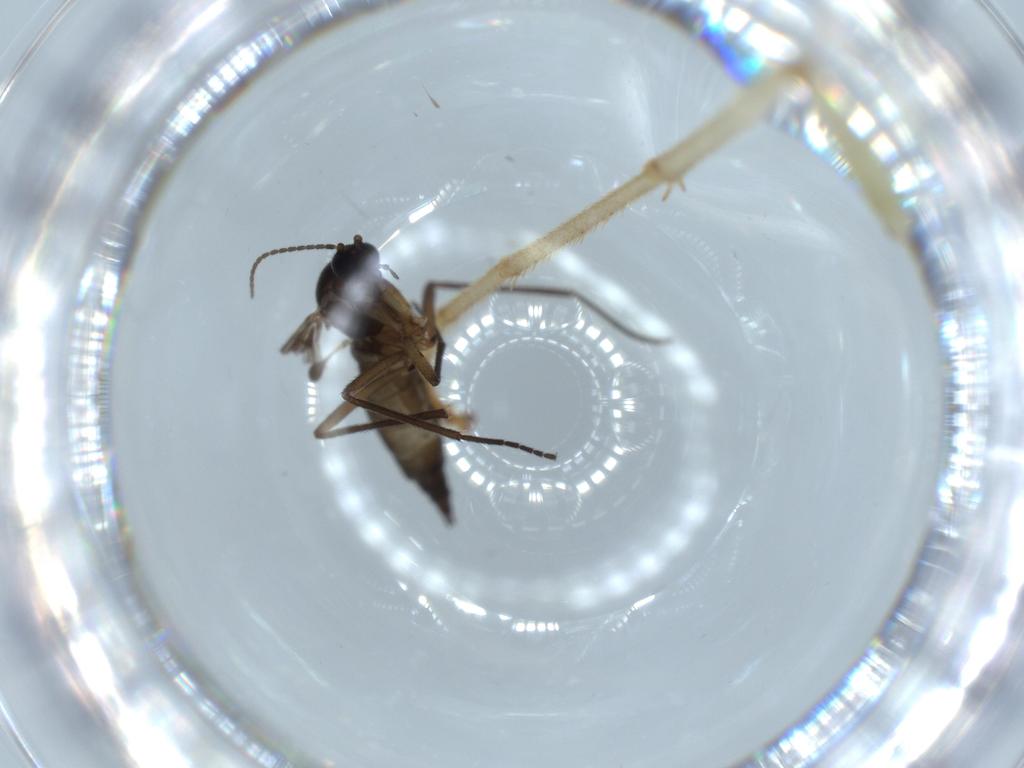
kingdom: Animalia
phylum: Arthropoda
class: Insecta
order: Diptera
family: Sciaridae
